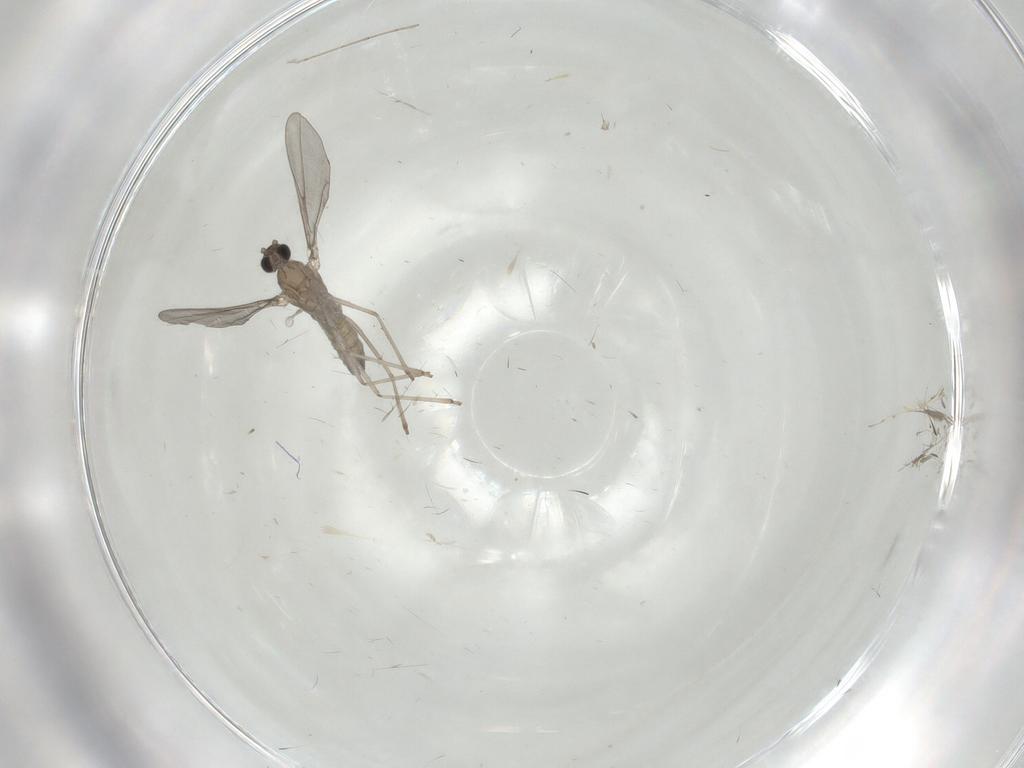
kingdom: Animalia
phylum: Arthropoda
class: Insecta
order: Diptera
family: Cecidomyiidae
